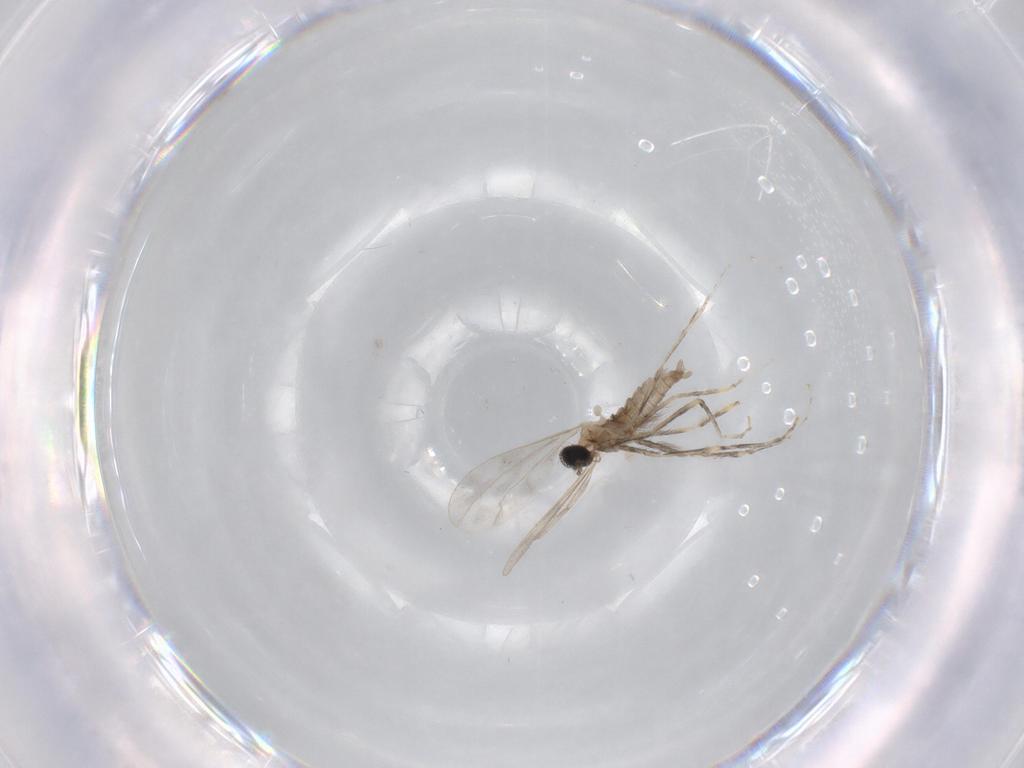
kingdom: Animalia
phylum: Arthropoda
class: Insecta
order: Diptera
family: Cecidomyiidae
